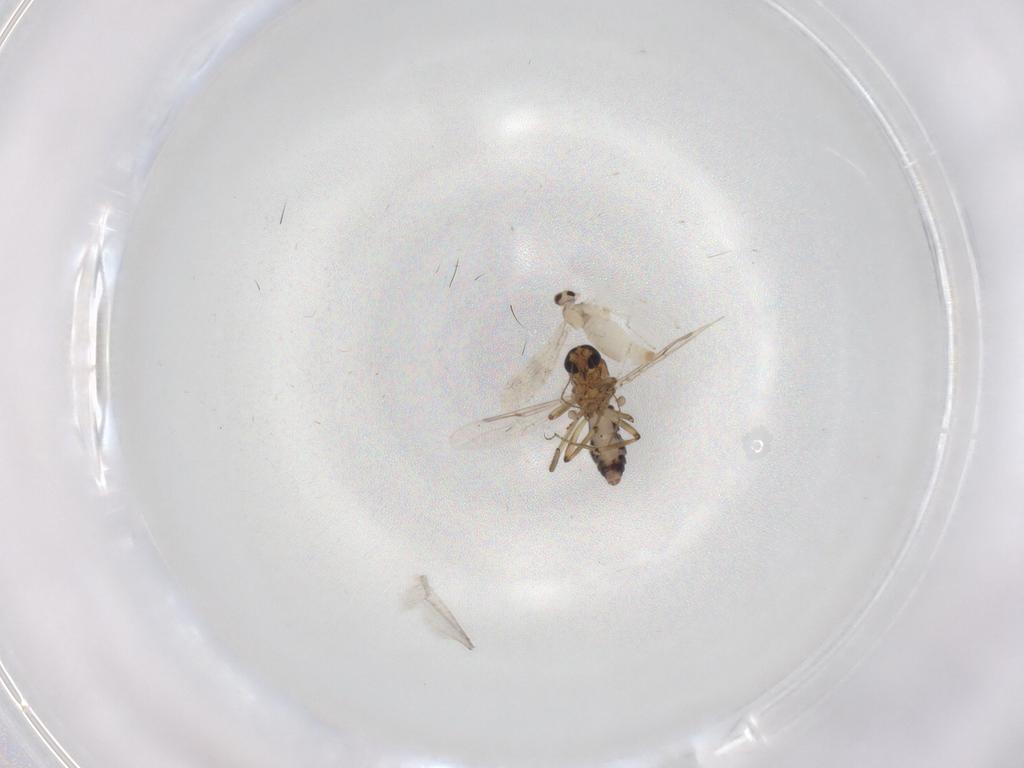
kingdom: Animalia
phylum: Arthropoda
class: Insecta
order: Diptera
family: Cecidomyiidae
